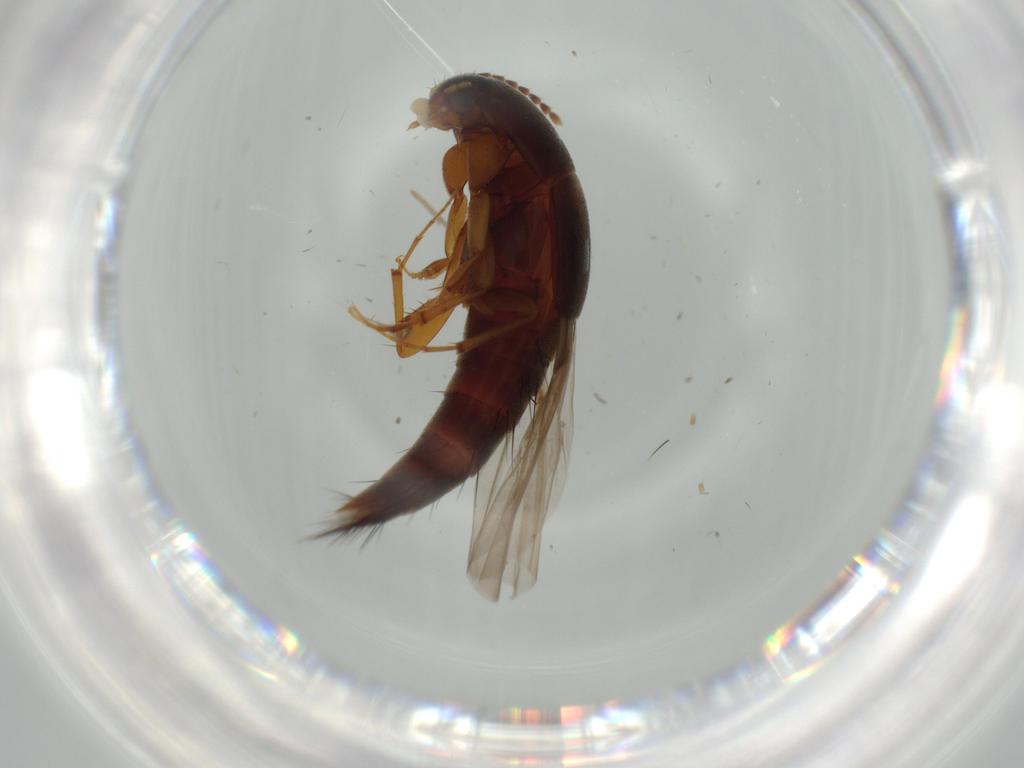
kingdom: Animalia
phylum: Arthropoda
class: Insecta
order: Coleoptera
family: Staphylinidae
